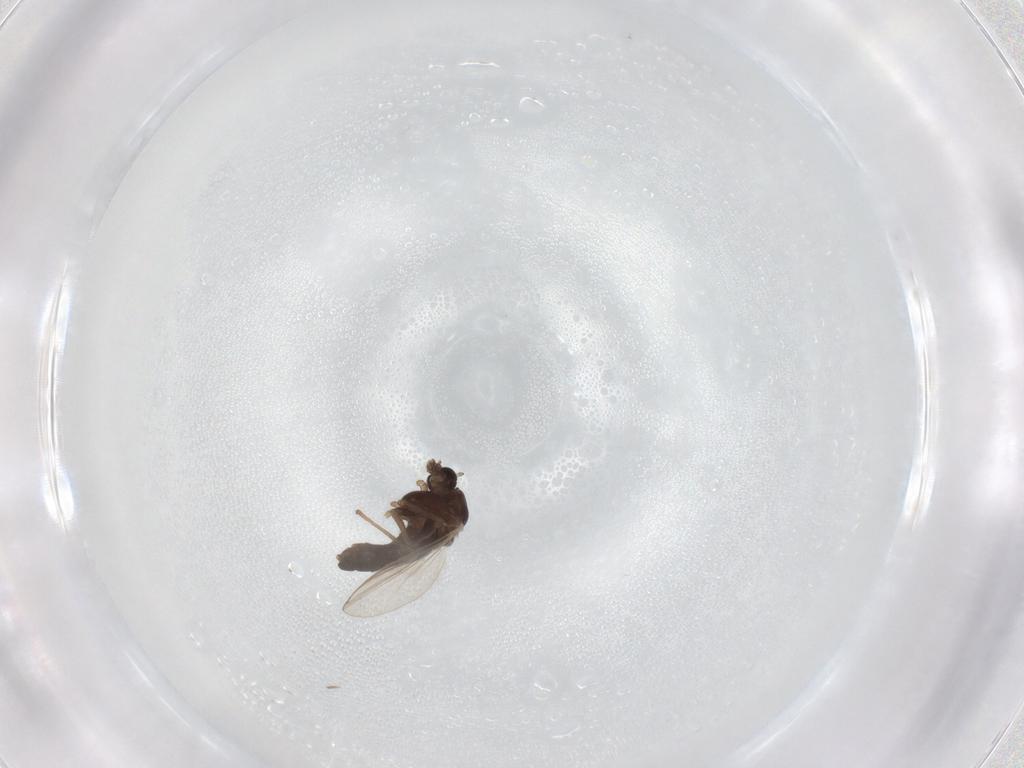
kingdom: Animalia
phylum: Arthropoda
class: Insecta
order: Diptera
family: Chironomidae
